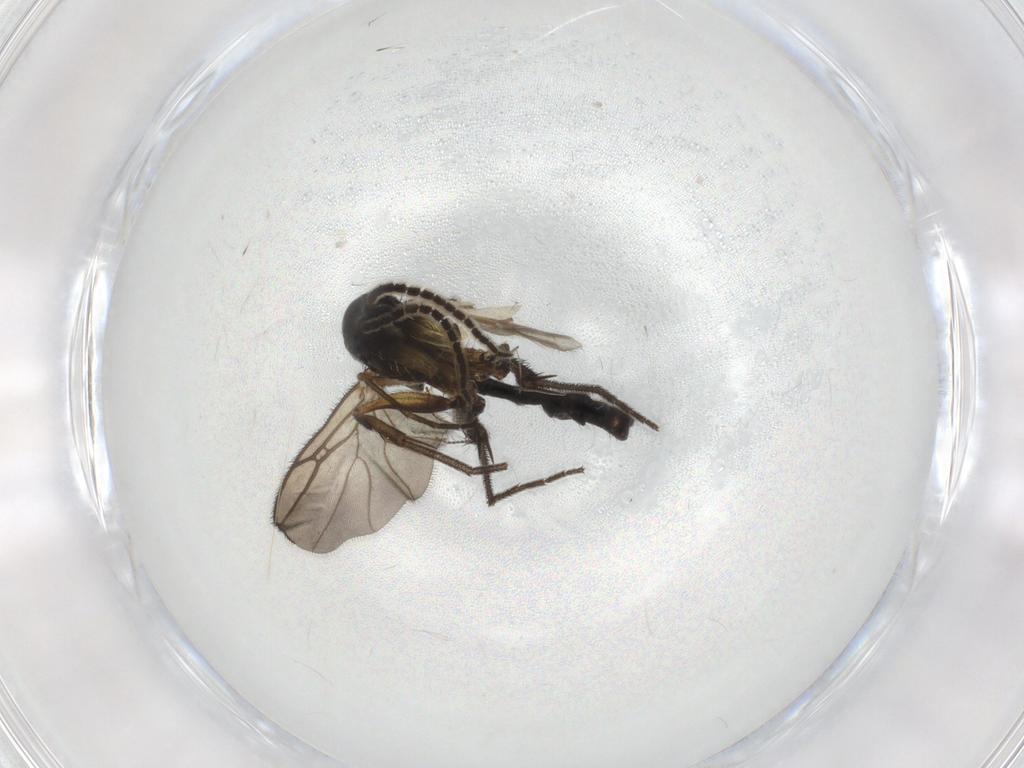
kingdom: Animalia
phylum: Arthropoda
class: Insecta
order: Diptera
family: Chironomidae
